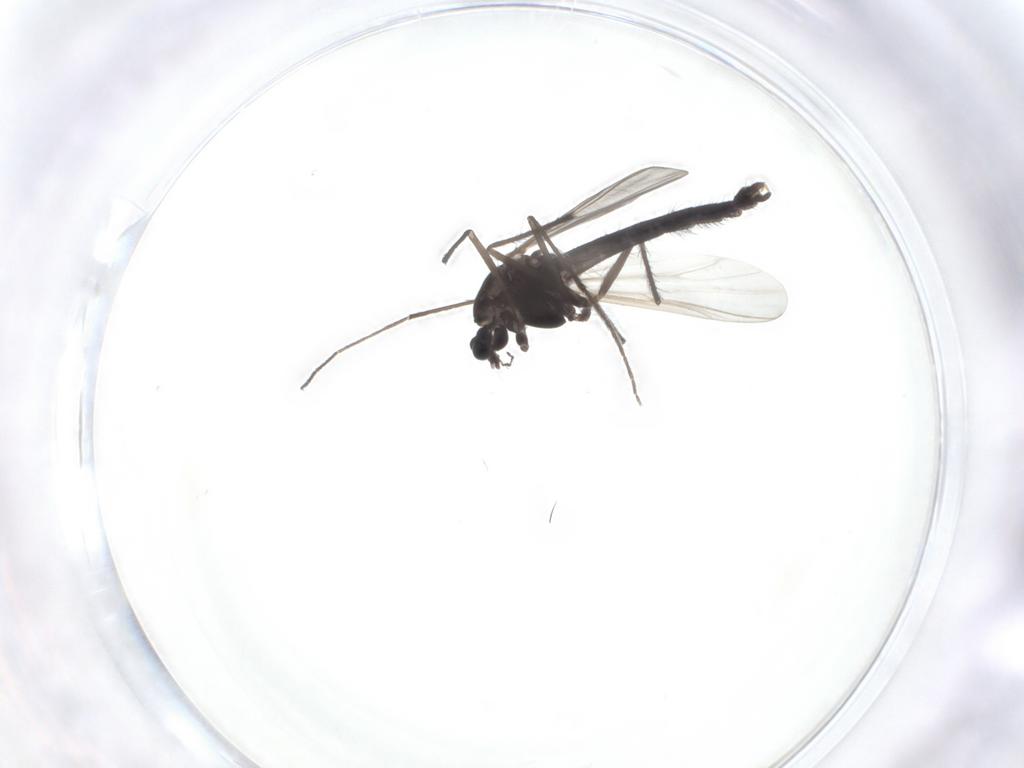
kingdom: Animalia
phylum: Arthropoda
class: Insecta
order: Diptera
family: Chironomidae
